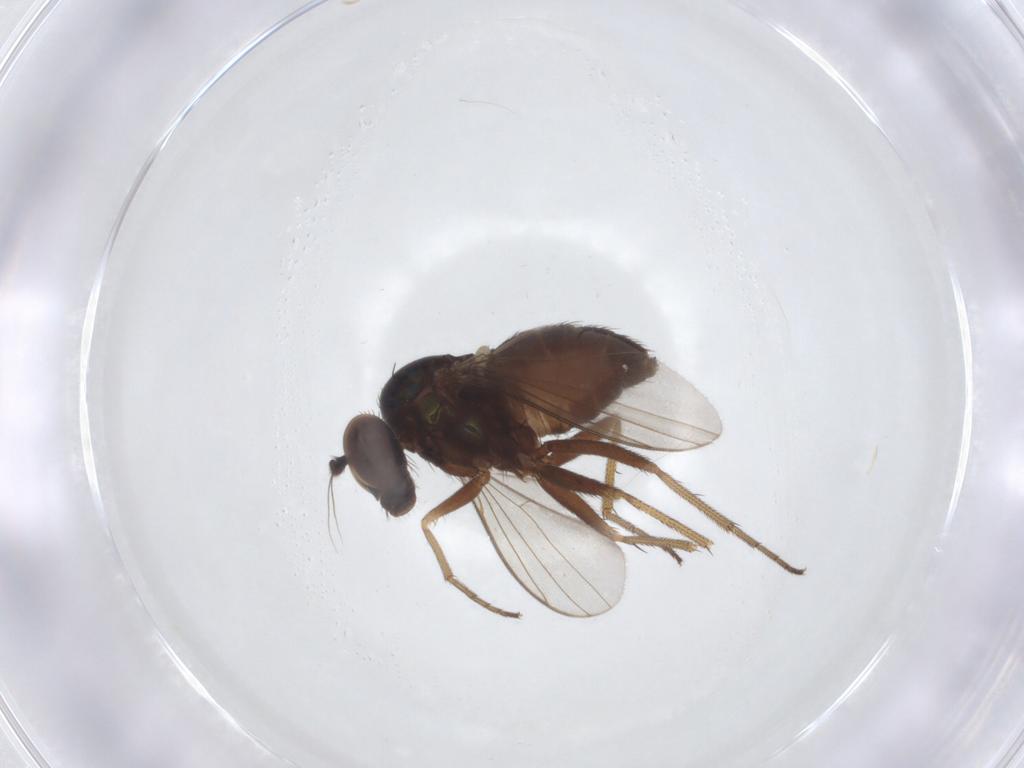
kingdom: Animalia
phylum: Arthropoda
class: Insecta
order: Diptera
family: Dolichopodidae
